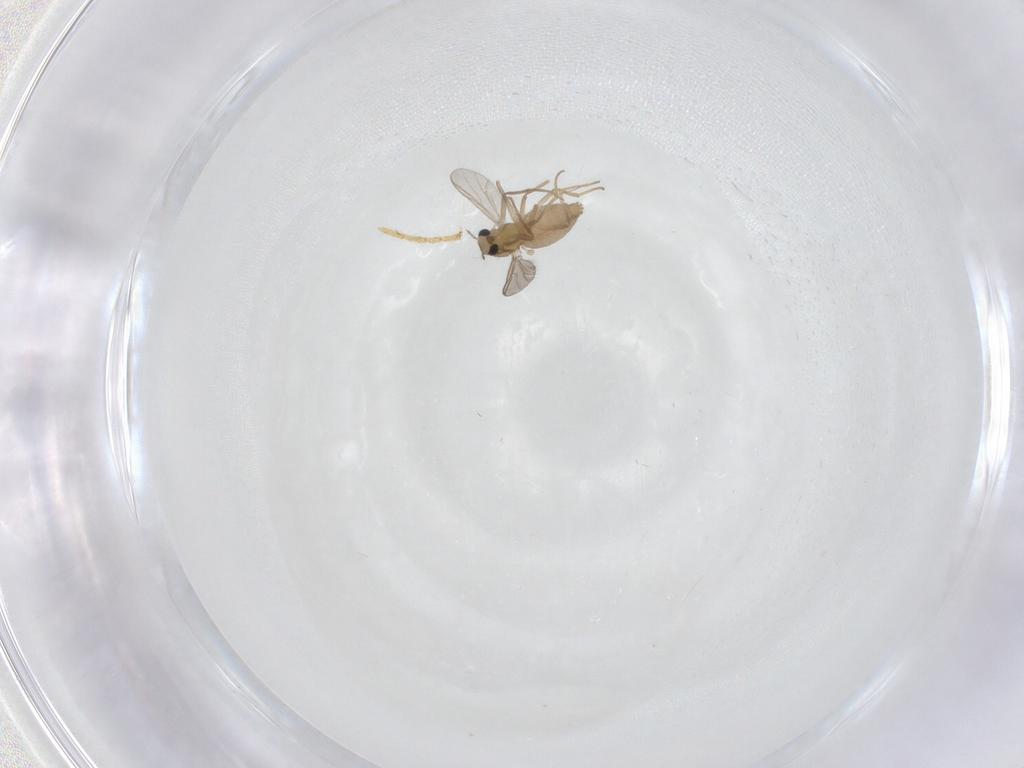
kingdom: Animalia
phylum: Arthropoda
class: Insecta
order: Diptera
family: Chironomidae
